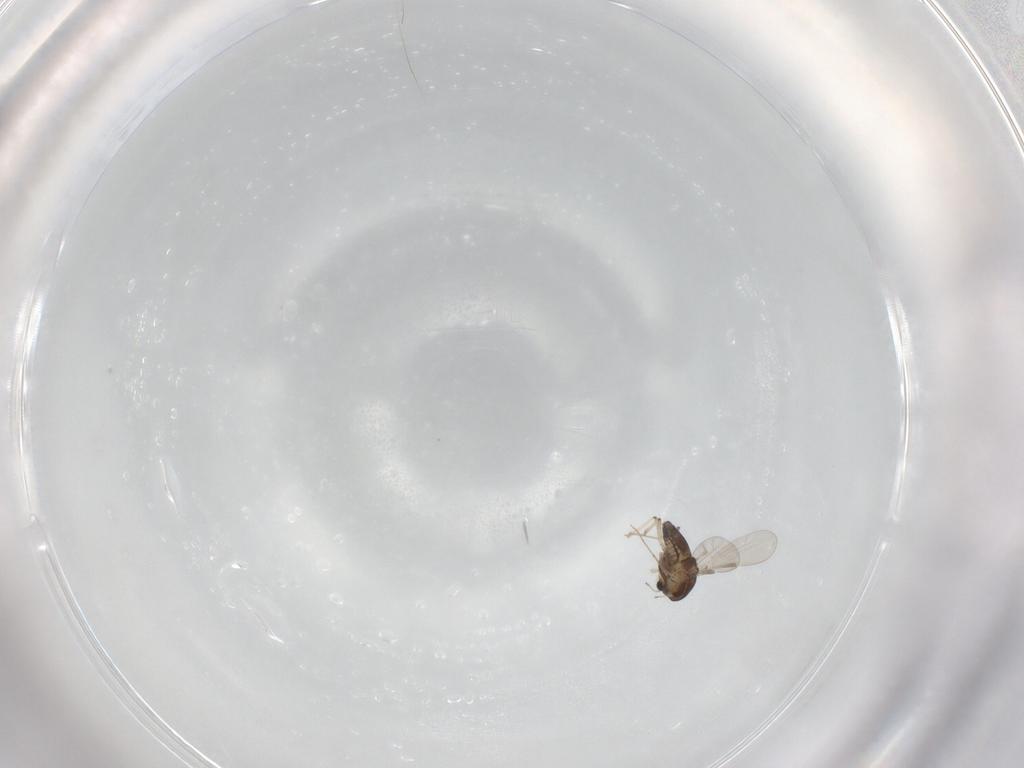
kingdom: Animalia
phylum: Arthropoda
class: Insecta
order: Diptera
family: Chironomidae
